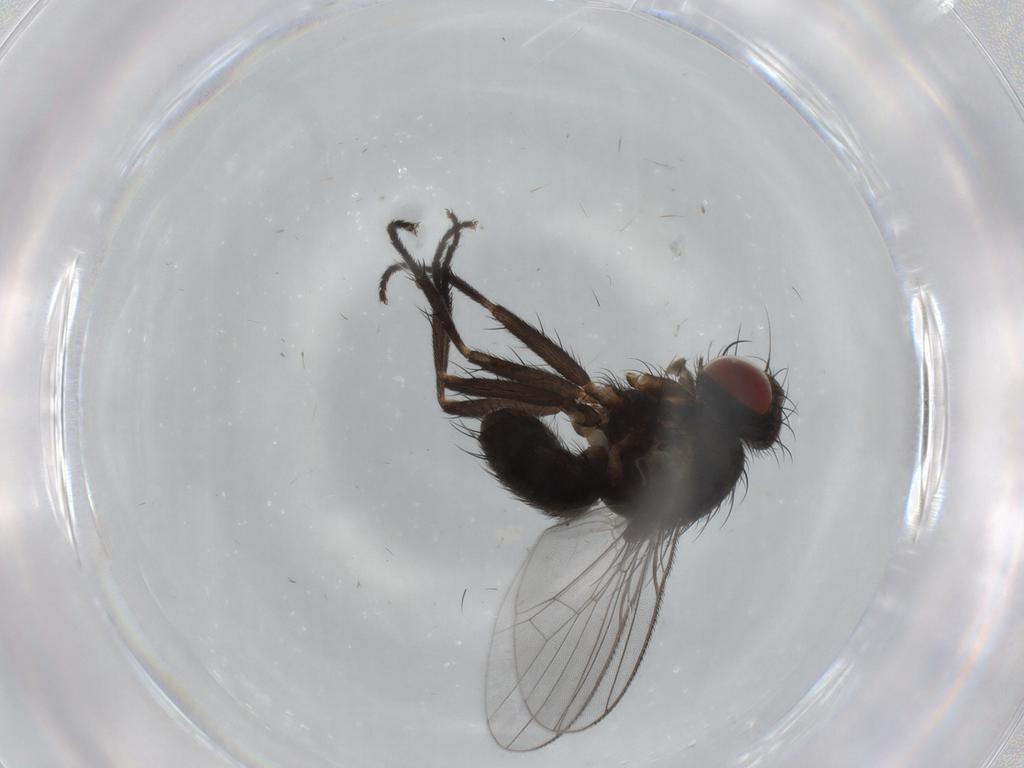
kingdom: Animalia
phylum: Arthropoda
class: Insecta
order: Diptera
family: Muscidae
